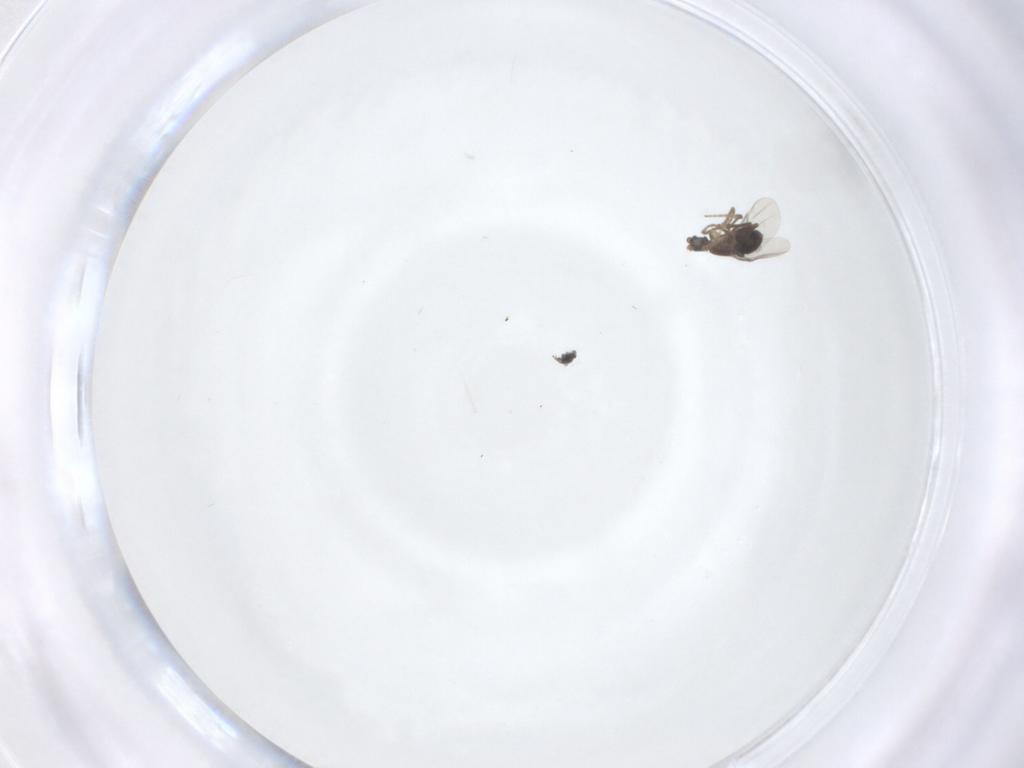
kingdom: Animalia
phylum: Arthropoda
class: Insecta
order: Diptera
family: Phoridae
